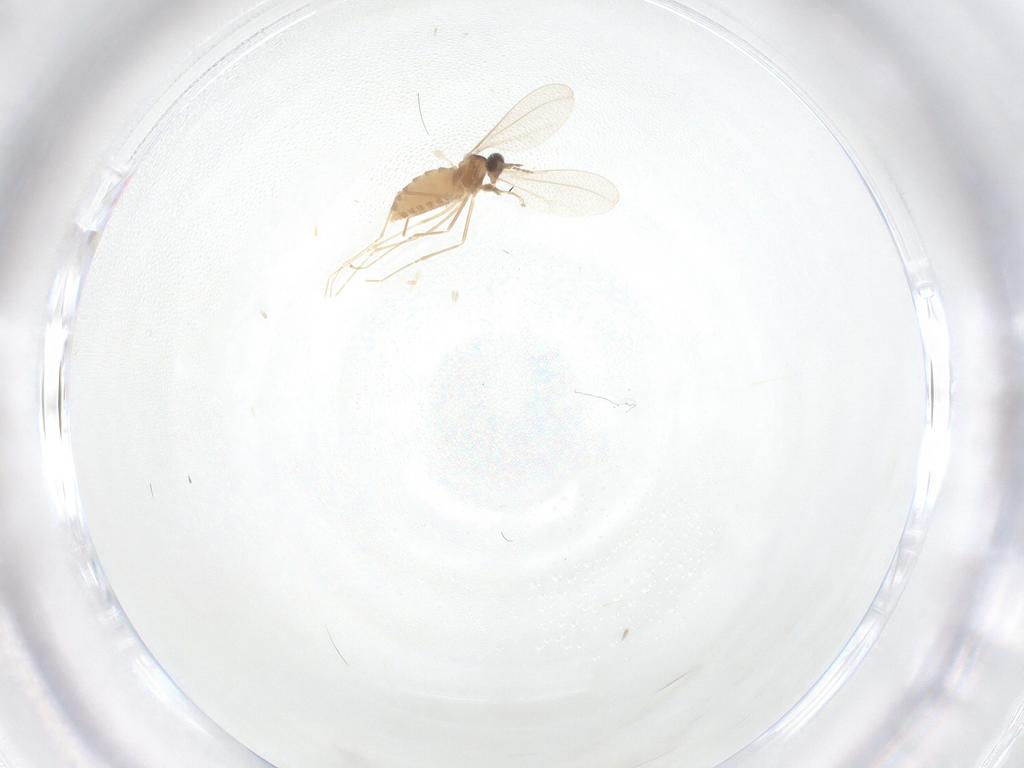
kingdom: Animalia
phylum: Arthropoda
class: Insecta
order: Diptera
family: Cecidomyiidae
